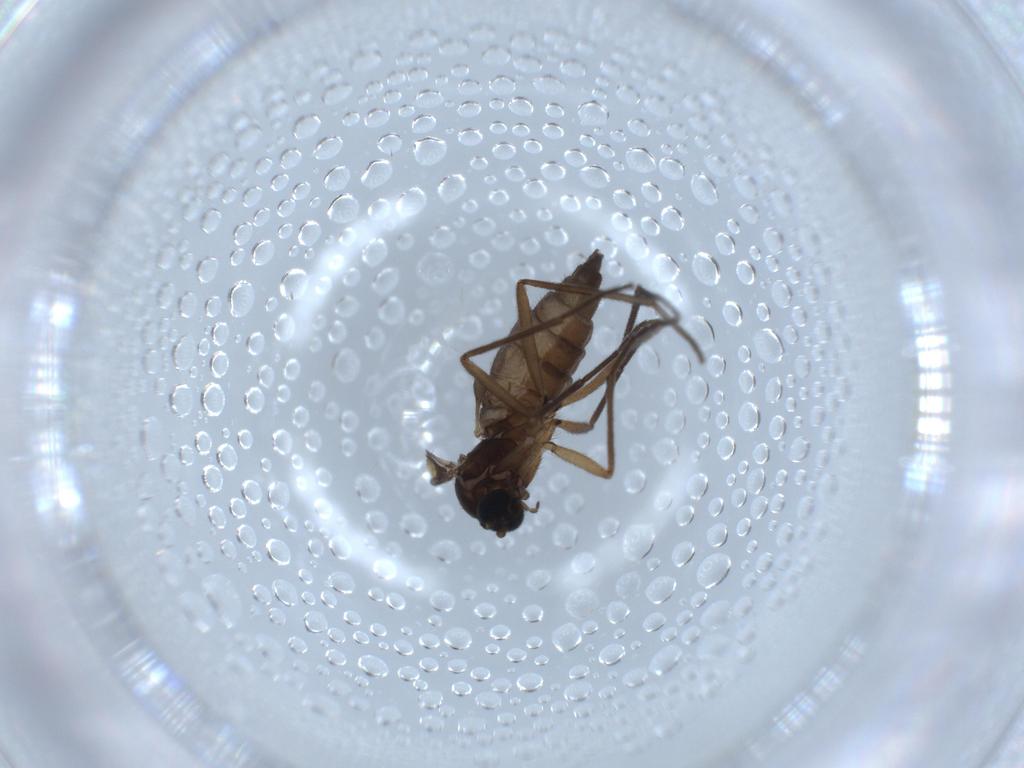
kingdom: Animalia
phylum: Arthropoda
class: Insecta
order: Diptera
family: Sciaridae
